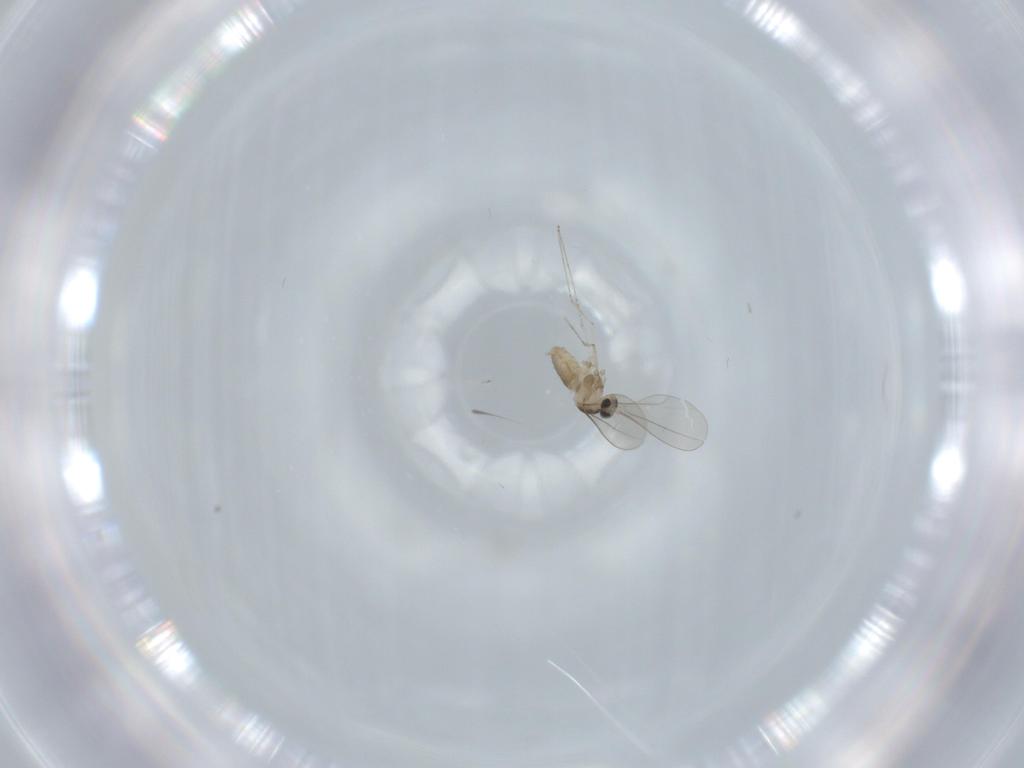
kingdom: Animalia
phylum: Arthropoda
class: Insecta
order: Diptera
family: Cecidomyiidae
